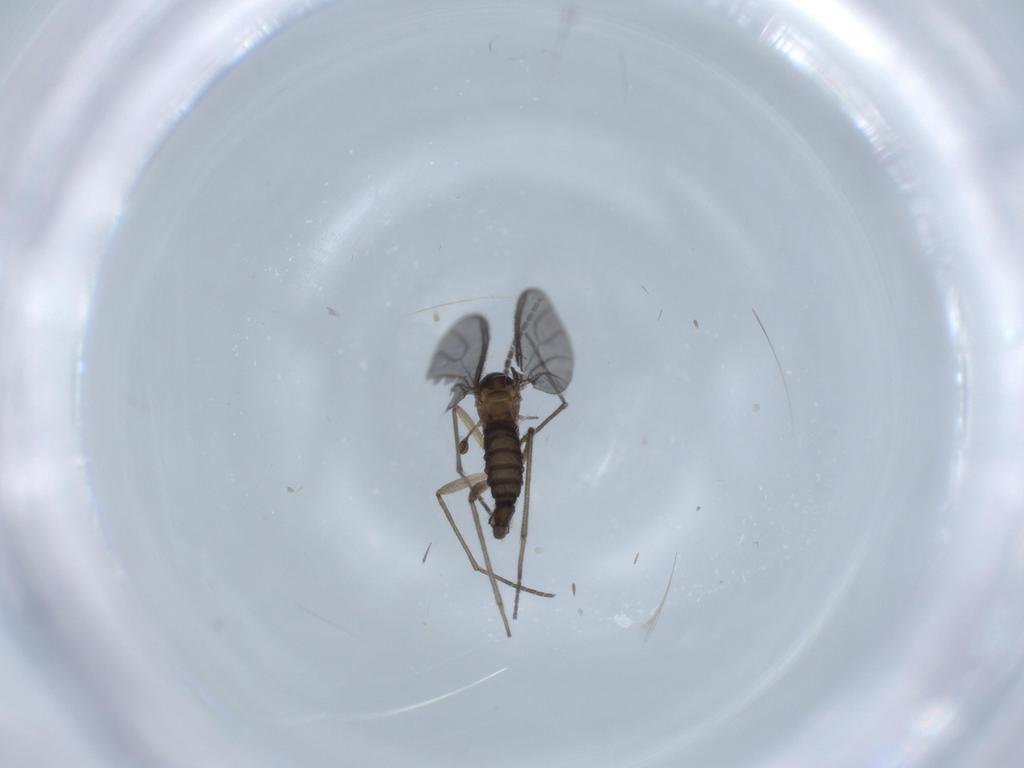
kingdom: Animalia
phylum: Arthropoda
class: Insecta
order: Diptera
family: Sciaridae
